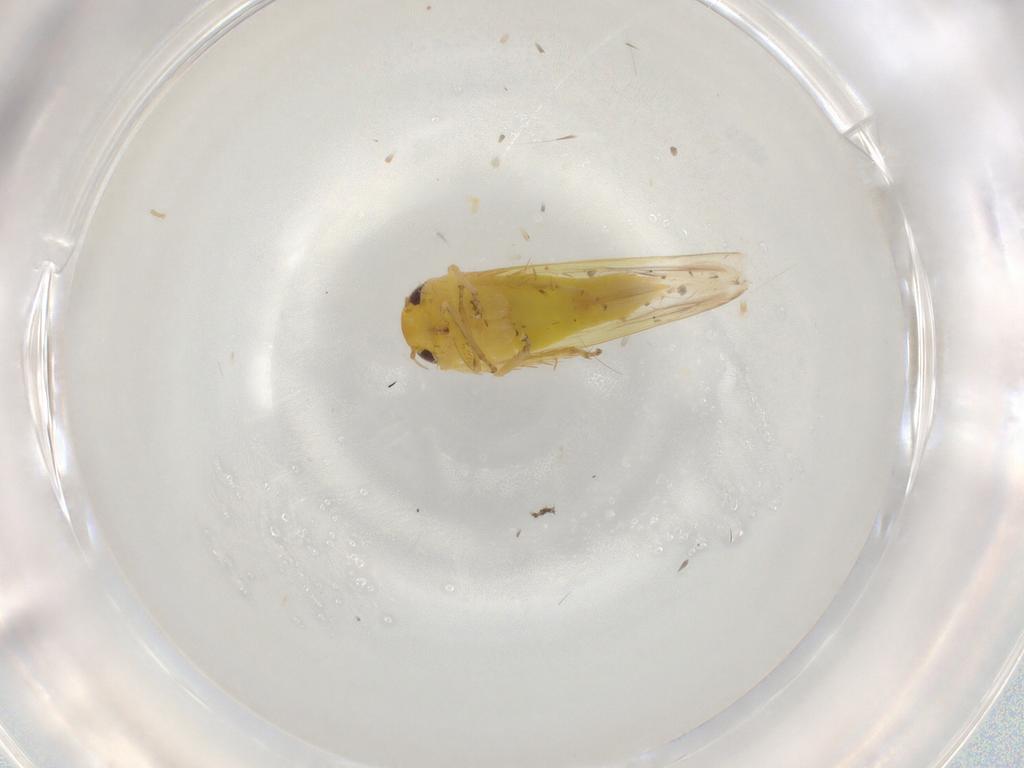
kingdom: Animalia
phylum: Arthropoda
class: Insecta
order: Hemiptera
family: Cicadellidae
